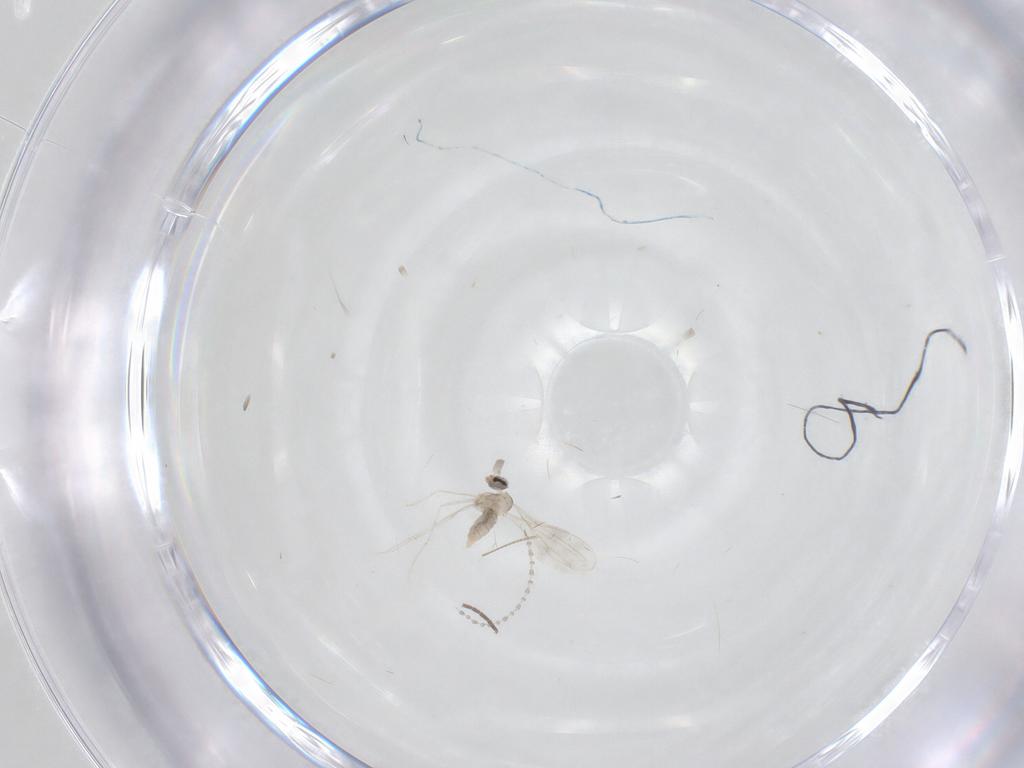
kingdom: Animalia
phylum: Arthropoda
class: Insecta
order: Diptera
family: Sciaridae
